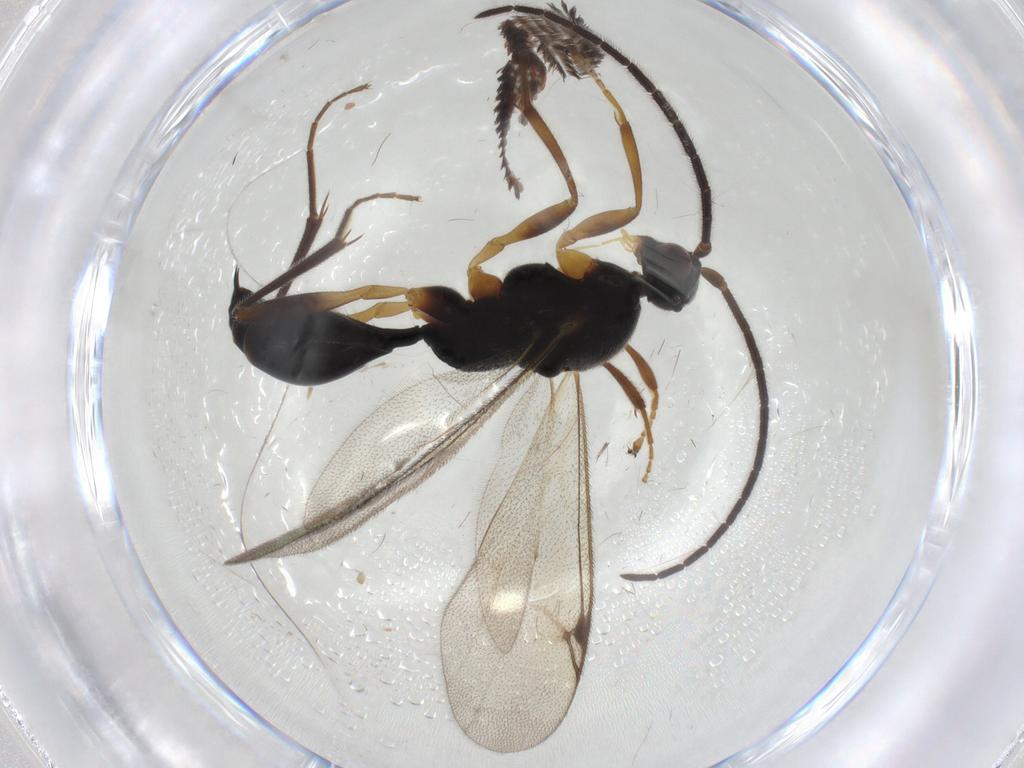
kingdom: Animalia
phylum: Arthropoda
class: Insecta
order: Hymenoptera
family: Proctotrupidae
